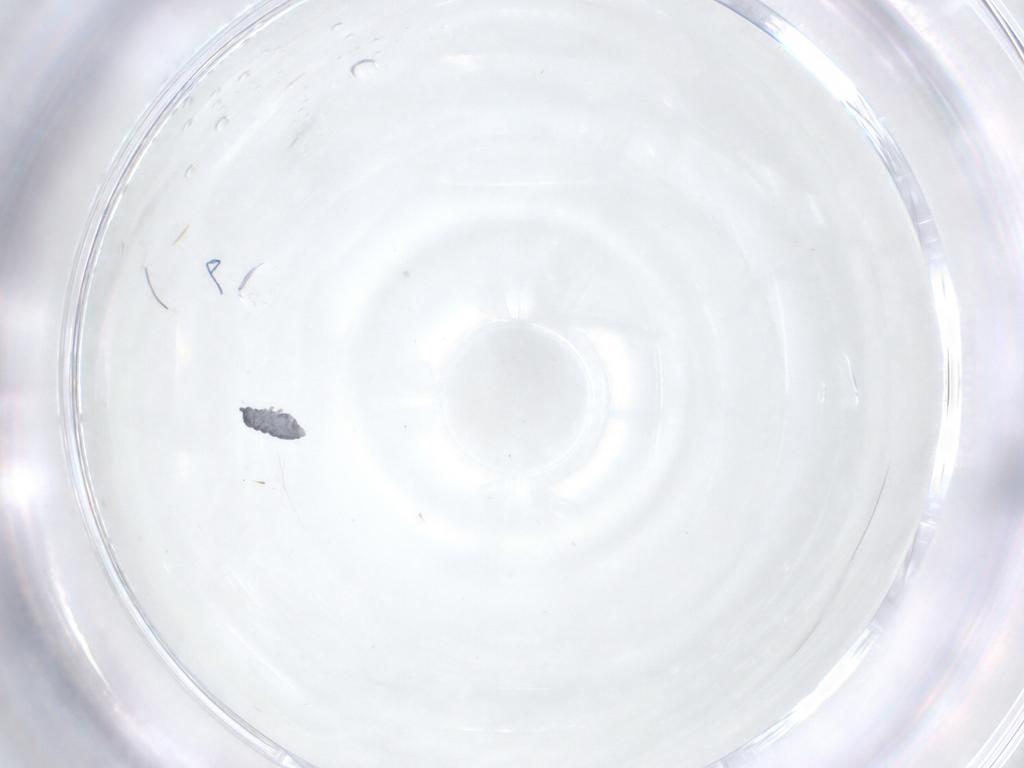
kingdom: Animalia
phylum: Arthropoda
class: Collembola
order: Poduromorpha
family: Hypogastruridae
